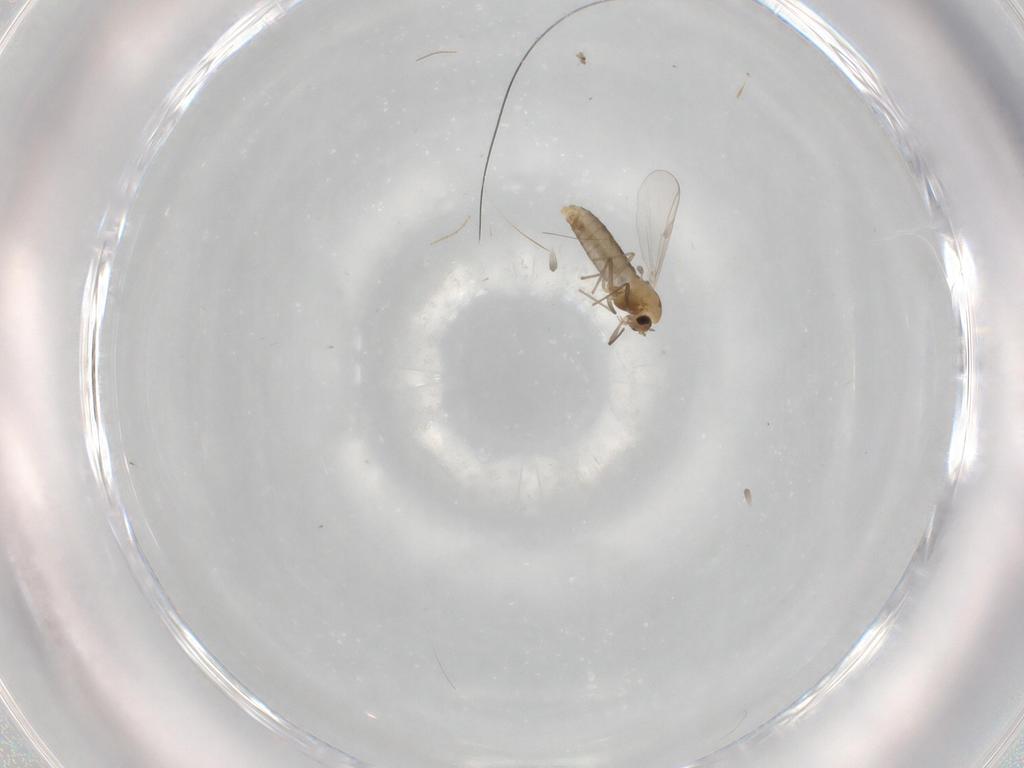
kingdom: Animalia
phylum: Arthropoda
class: Insecta
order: Diptera
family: Chironomidae
